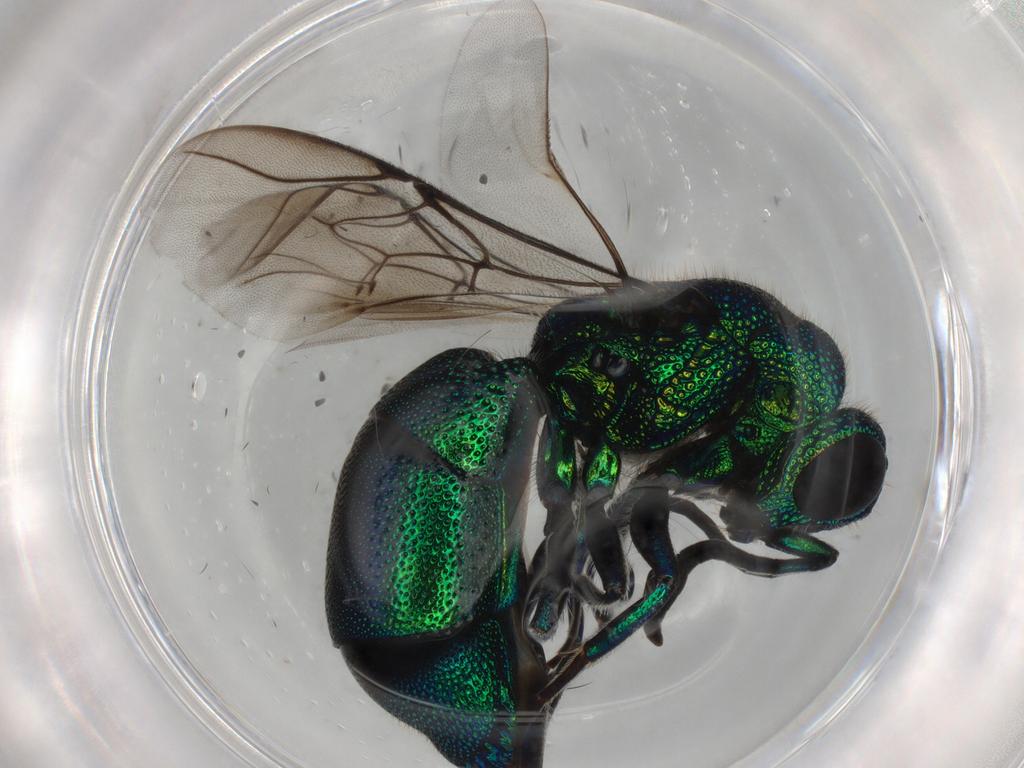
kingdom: Animalia
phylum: Arthropoda
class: Insecta
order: Hymenoptera
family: Chrysididae
